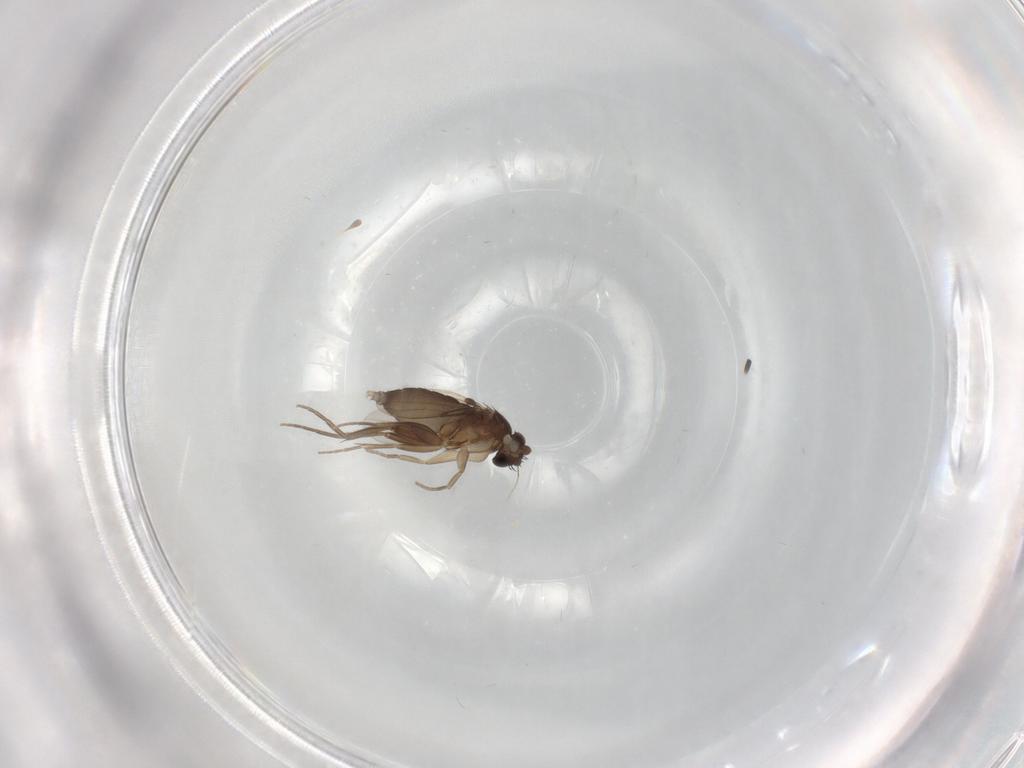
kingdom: Animalia
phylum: Arthropoda
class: Insecta
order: Diptera
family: Phoridae
